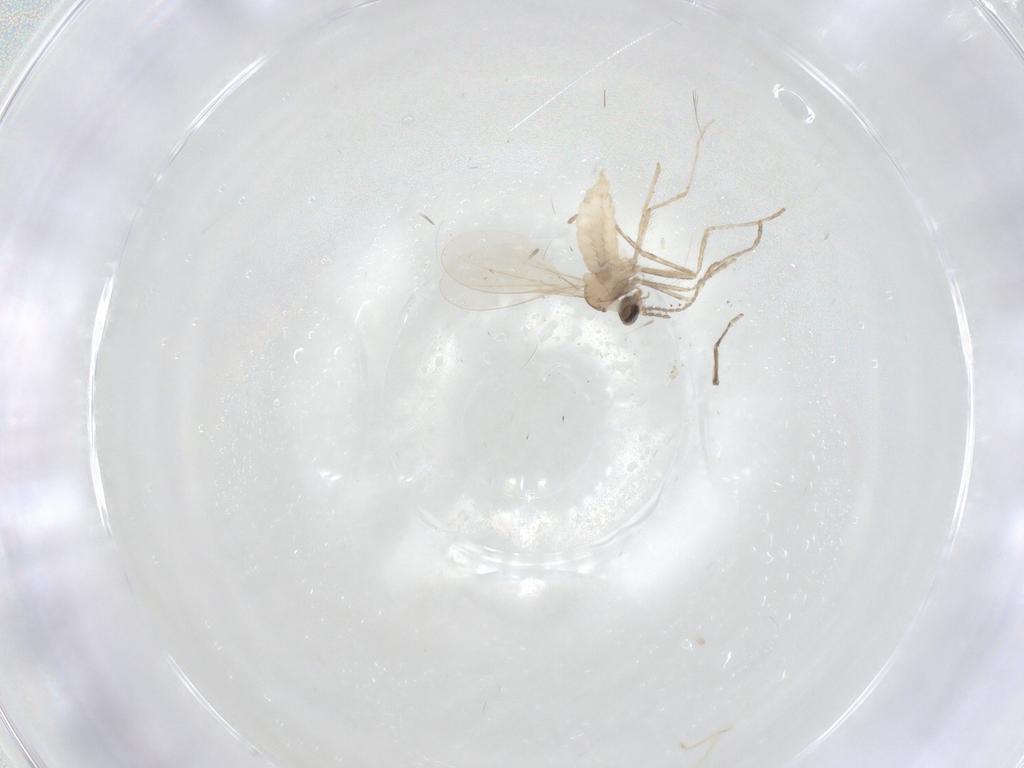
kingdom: Animalia
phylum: Arthropoda
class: Insecta
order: Diptera
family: Cecidomyiidae
